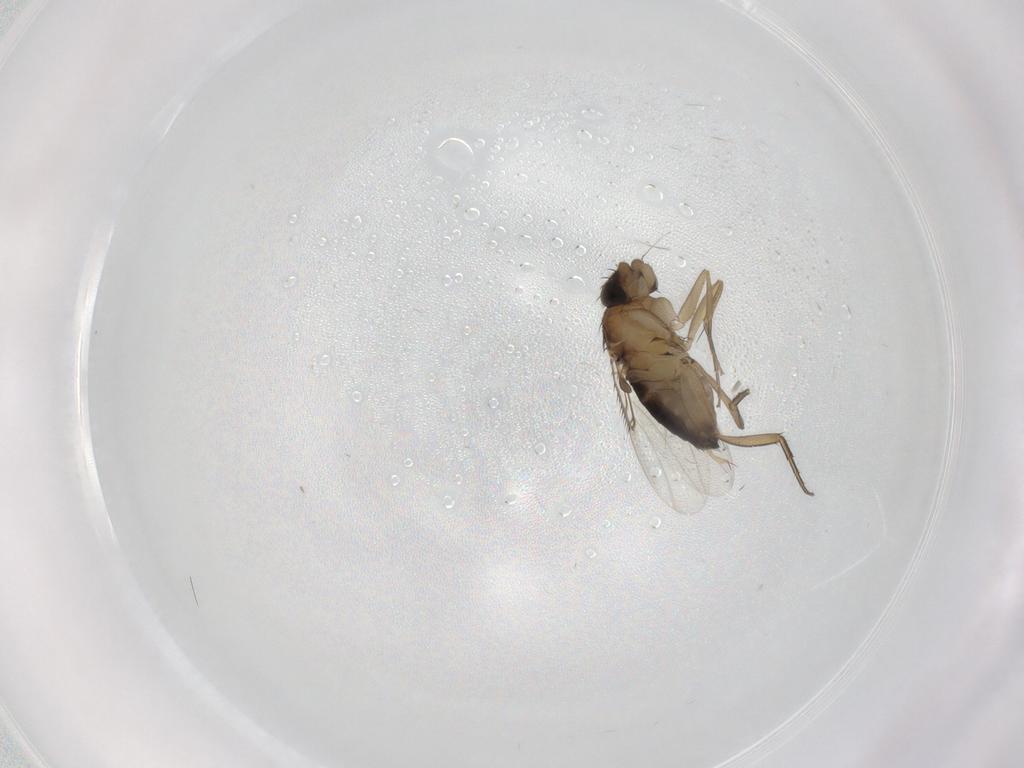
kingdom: Animalia
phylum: Arthropoda
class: Insecta
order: Diptera
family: Phoridae
